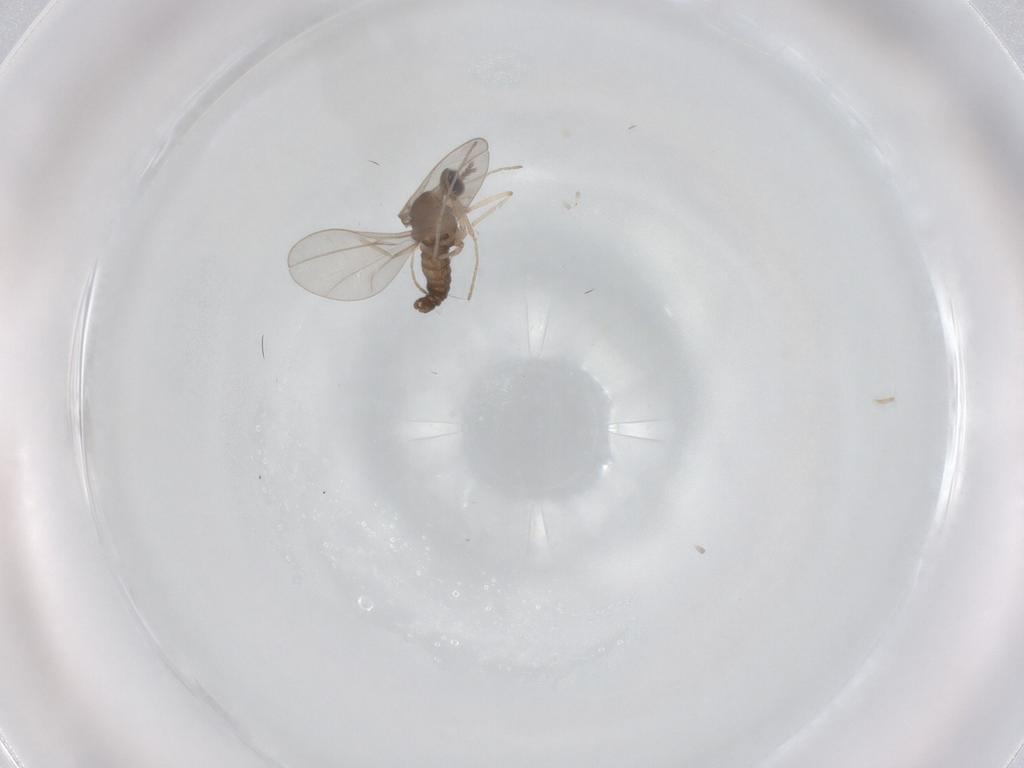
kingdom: Animalia
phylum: Arthropoda
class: Insecta
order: Diptera
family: Cecidomyiidae
